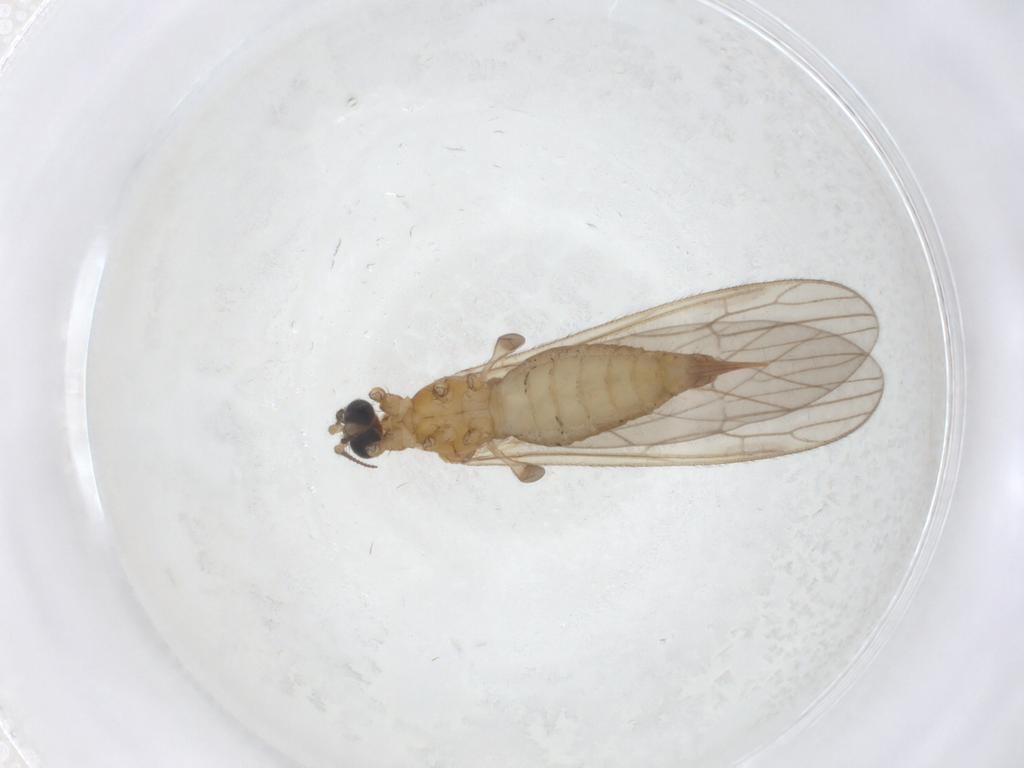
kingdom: Animalia
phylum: Arthropoda
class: Insecta
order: Diptera
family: Limoniidae
